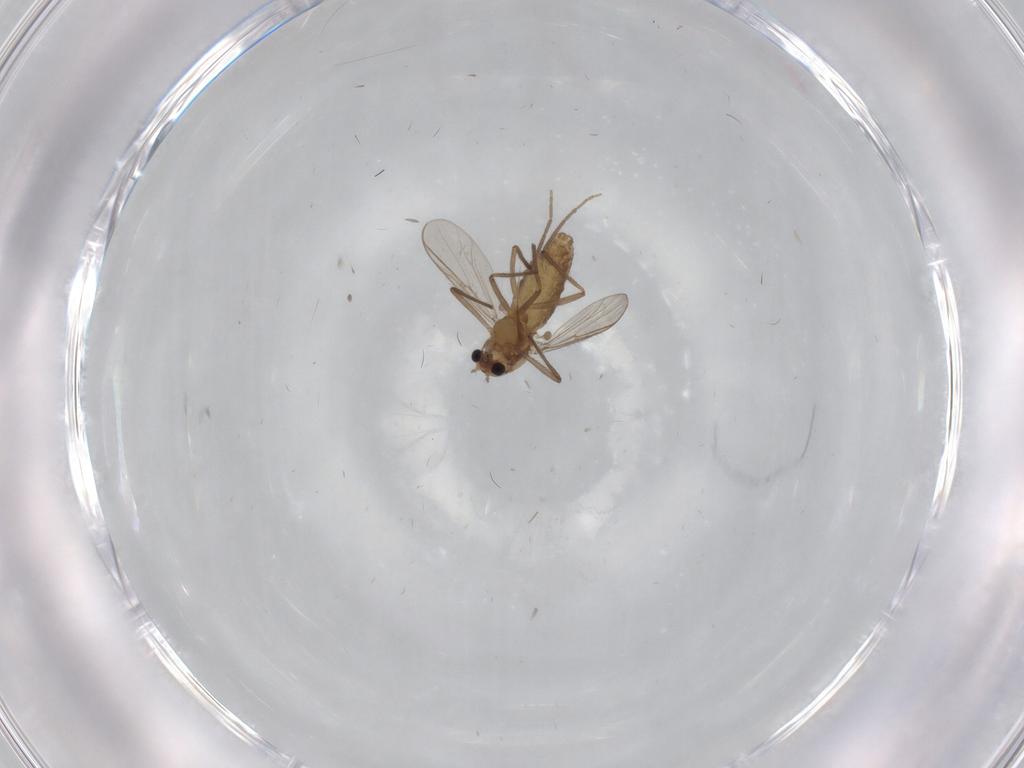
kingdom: Animalia
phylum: Arthropoda
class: Insecta
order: Diptera
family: Chironomidae
